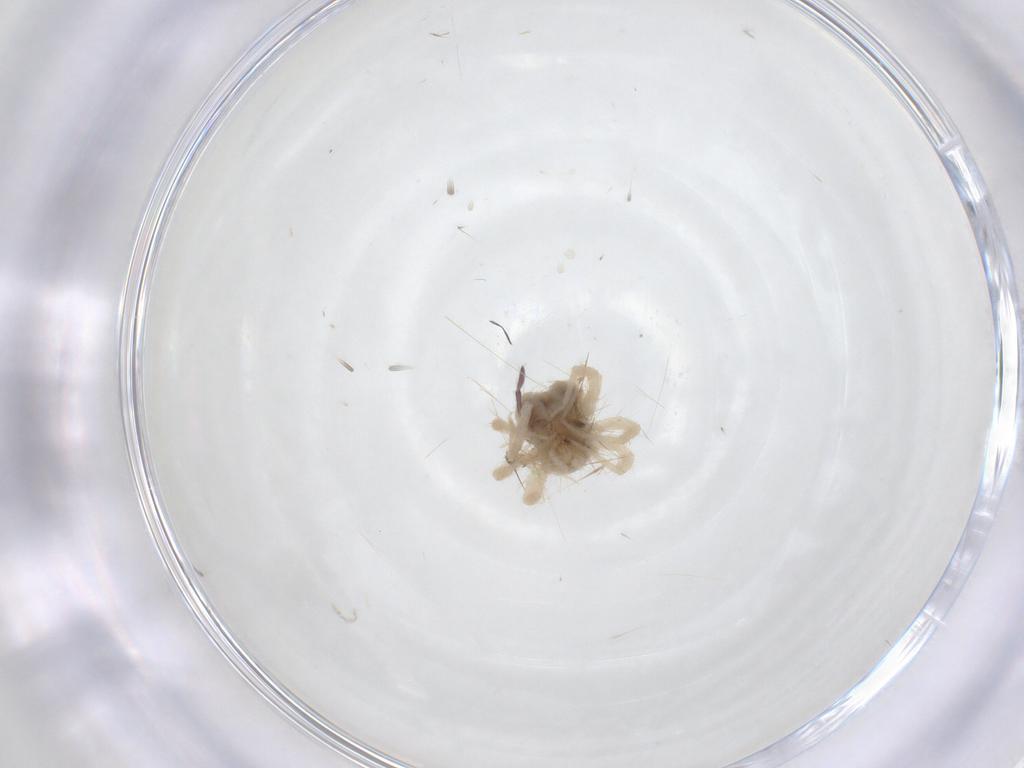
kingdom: Animalia
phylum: Arthropoda
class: Arachnida
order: Trombidiformes
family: Anystidae
